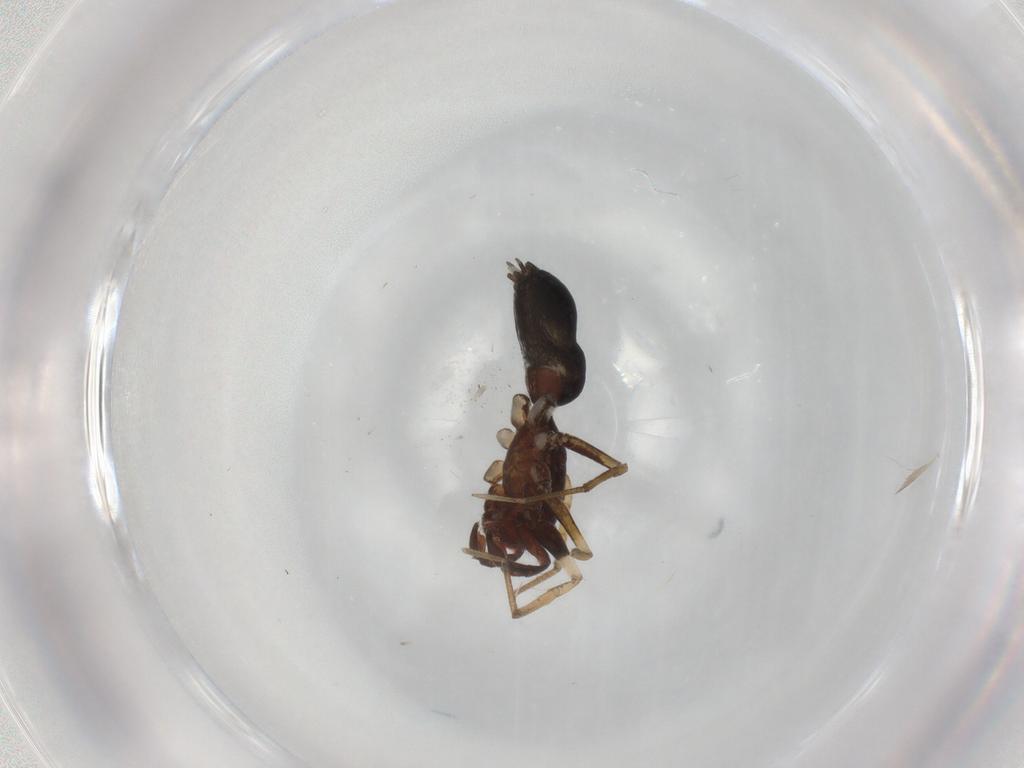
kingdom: Animalia
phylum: Arthropoda
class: Arachnida
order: Araneae
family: Gnaphosidae
